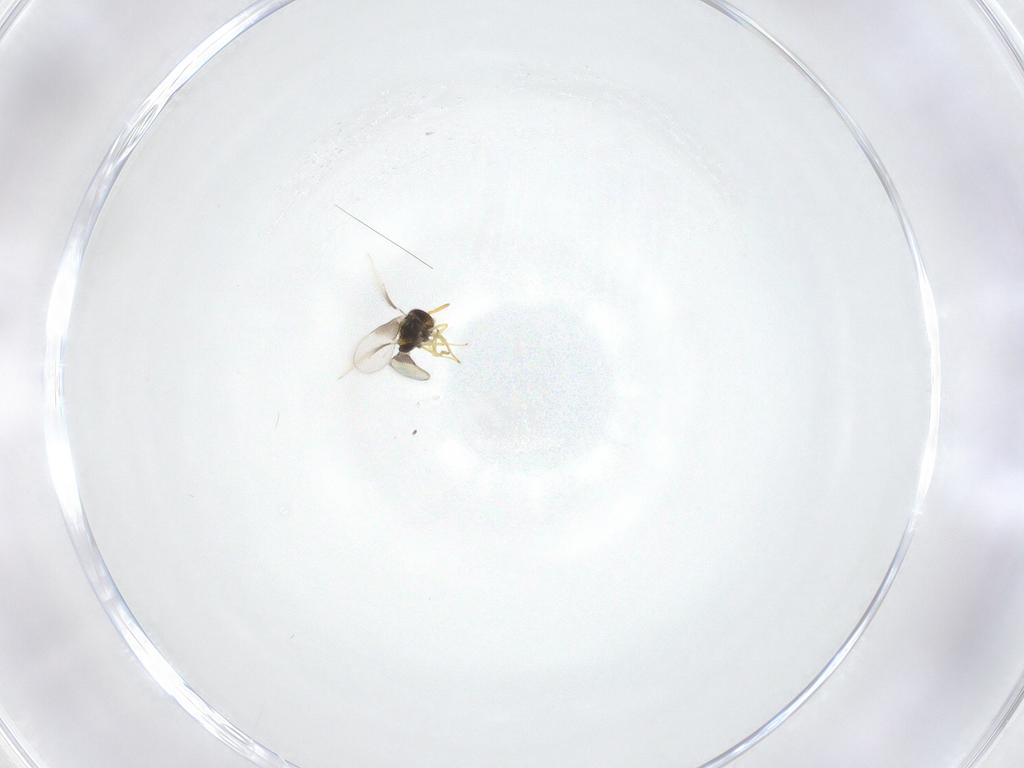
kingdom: Animalia
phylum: Arthropoda
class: Insecta
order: Hymenoptera
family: Aphelinidae
